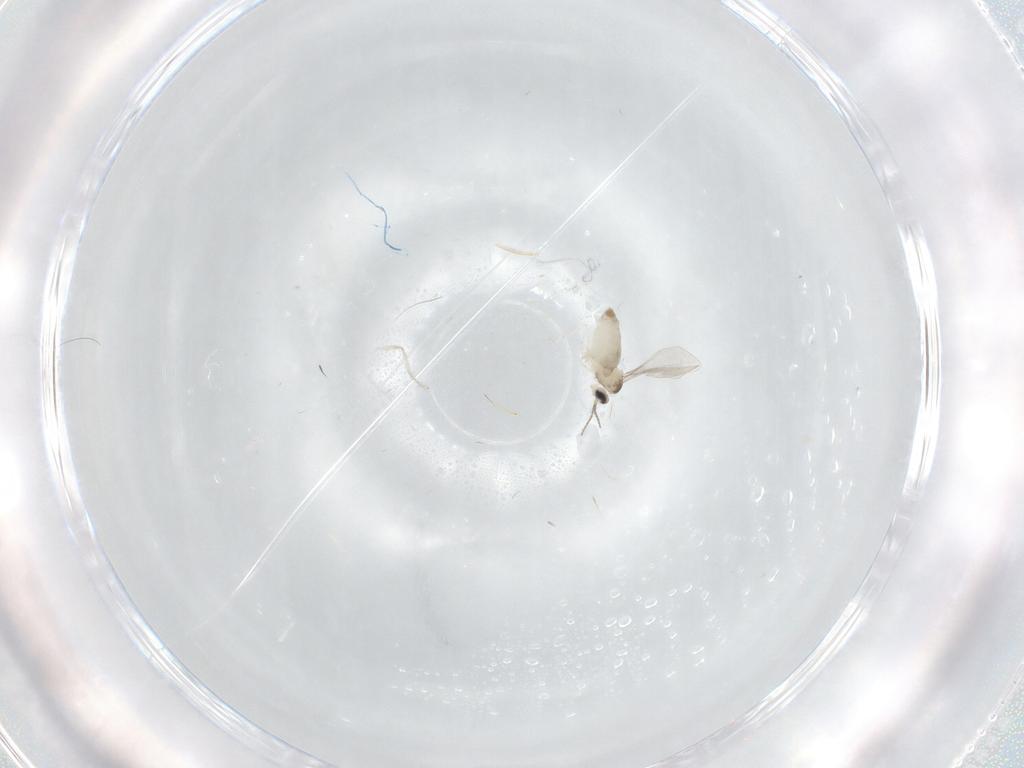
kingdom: Animalia
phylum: Arthropoda
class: Insecta
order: Diptera
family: Cecidomyiidae
